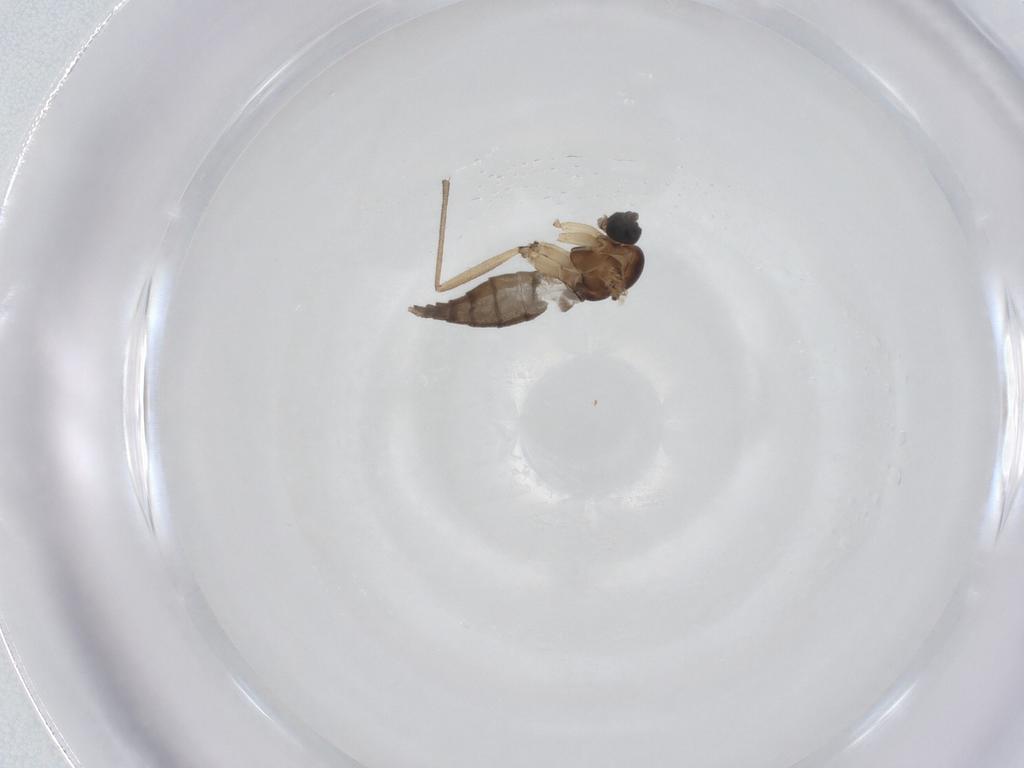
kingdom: Animalia
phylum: Arthropoda
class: Insecta
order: Diptera
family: Sciaridae
